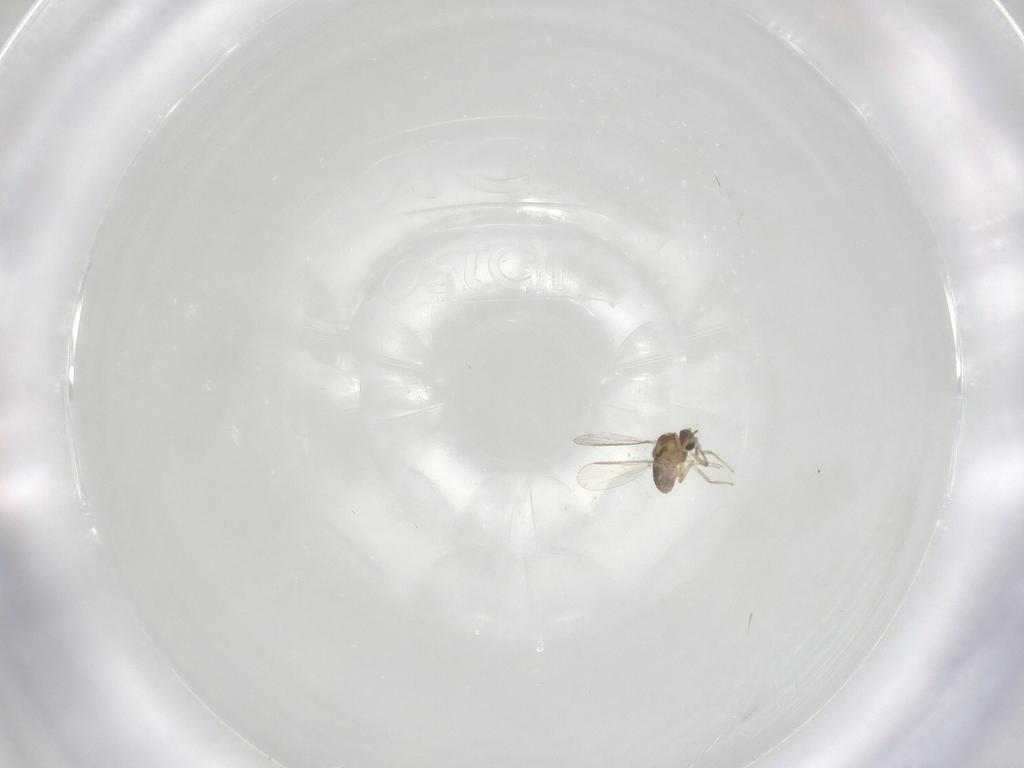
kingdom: Animalia
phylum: Arthropoda
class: Insecta
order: Diptera
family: Chironomidae
